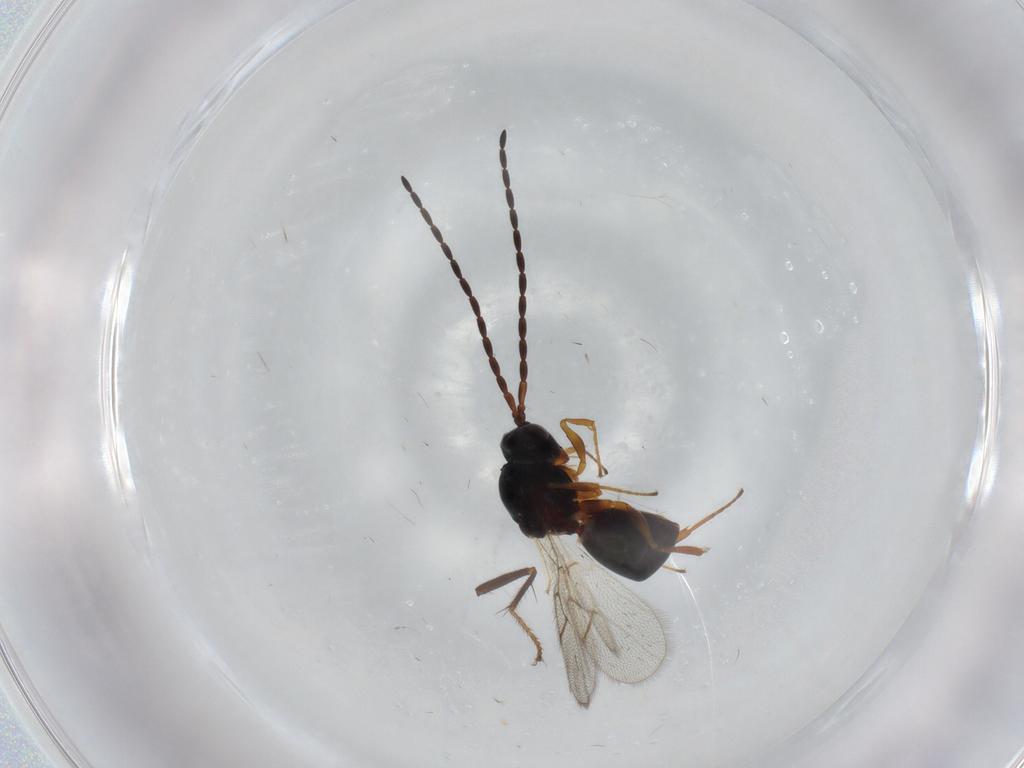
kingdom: Animalia
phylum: Arthropoda
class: Insecta
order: Hymenoptera
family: Figitidae
